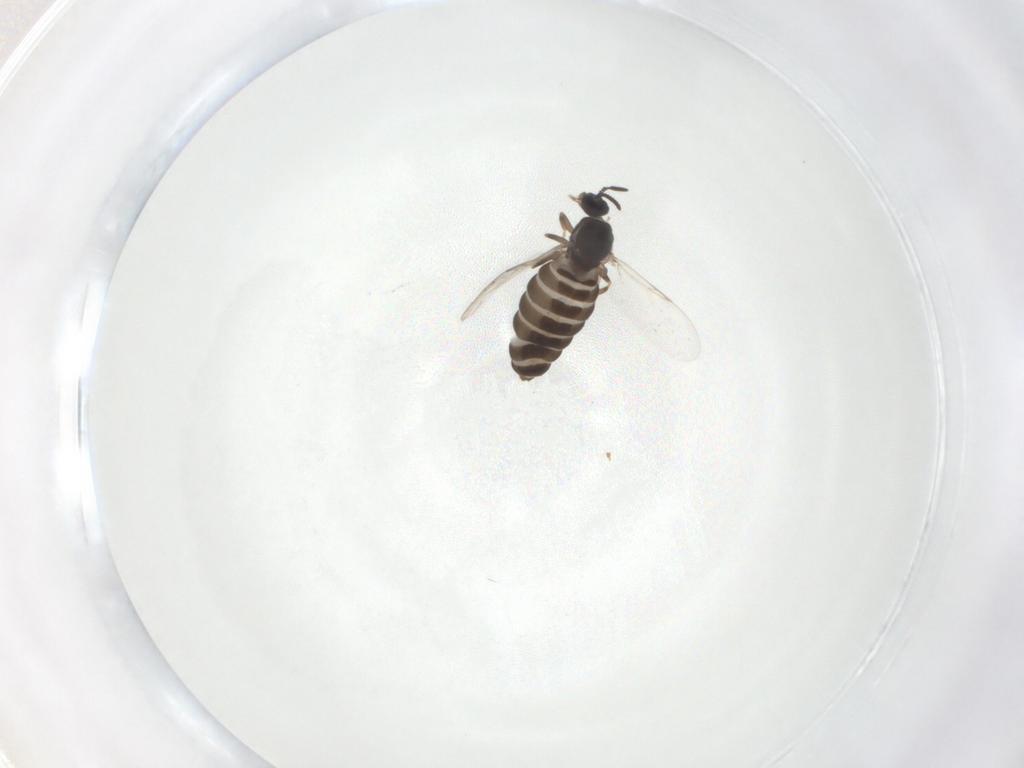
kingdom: Animalia
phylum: Arthropoda
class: Insecta
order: Diptera
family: Scatopsidae
